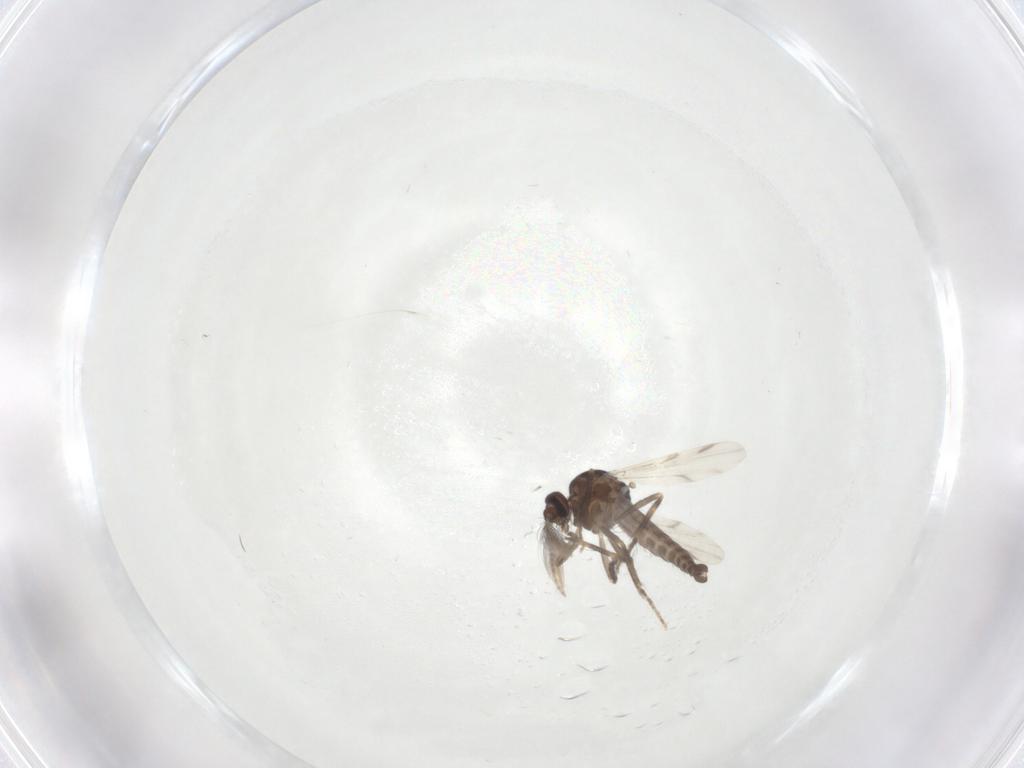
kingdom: Animalia
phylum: Arthropoda
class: Insecta
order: Diptera
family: Ceratopogonidae
